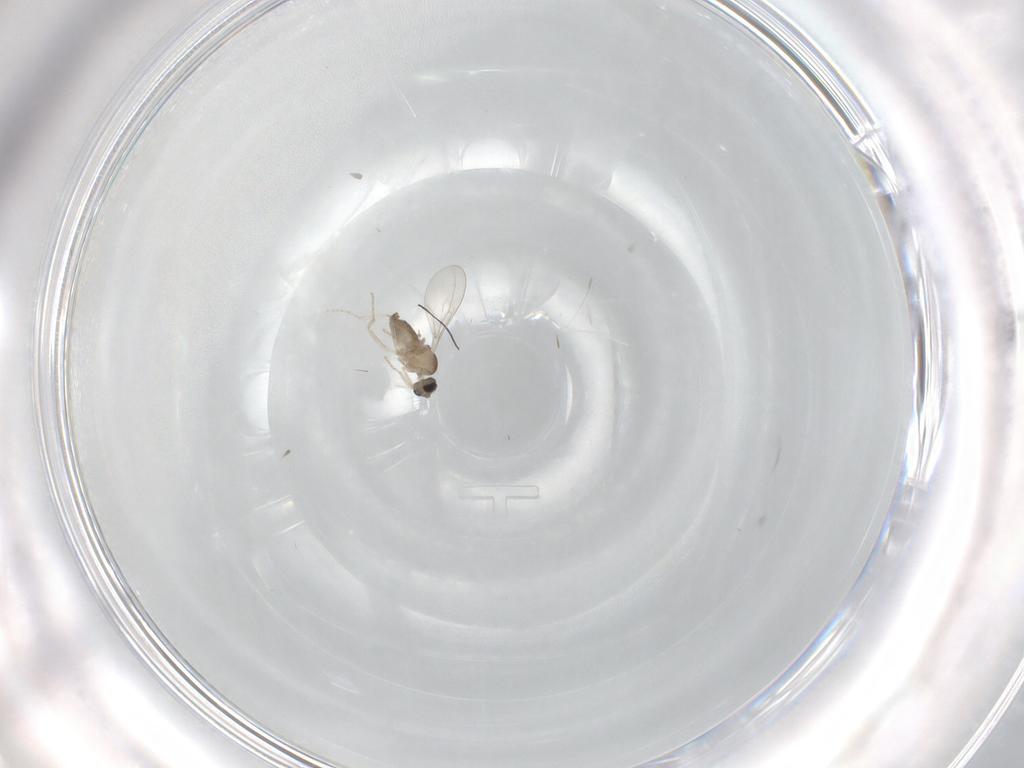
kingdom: Animalia
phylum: Arthropoda
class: Insecta
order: Diptera
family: Cecidomyiidae
